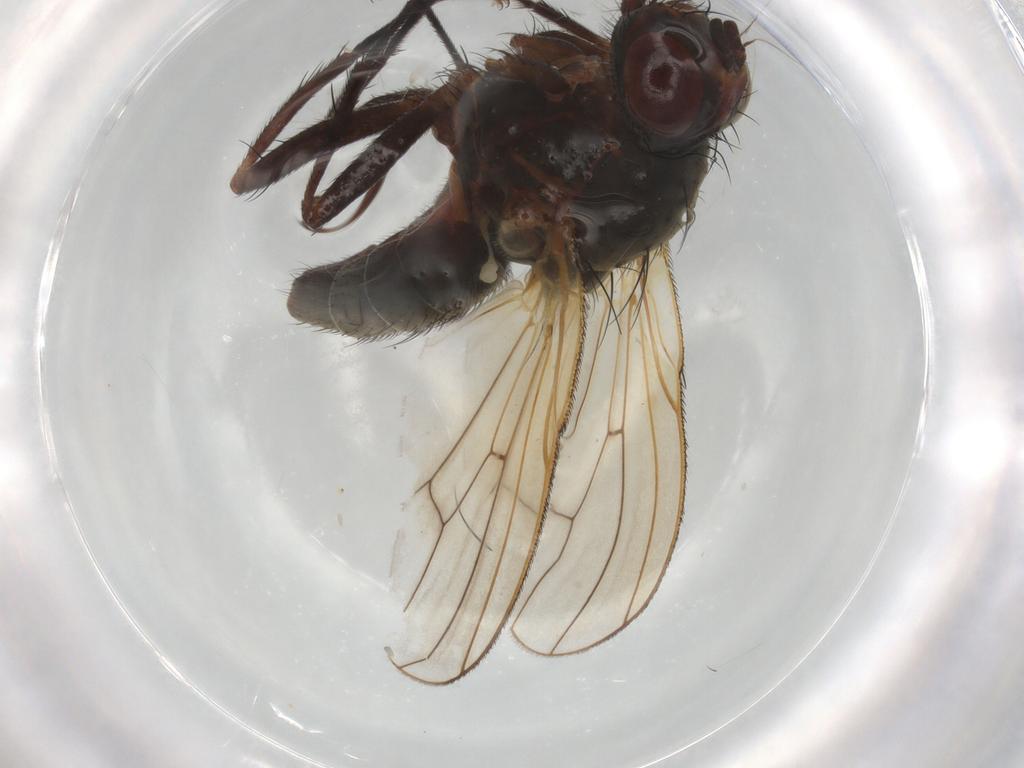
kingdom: Animalia
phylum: Arthropoda
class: Insecta
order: Diptera
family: Anthomyiidae
